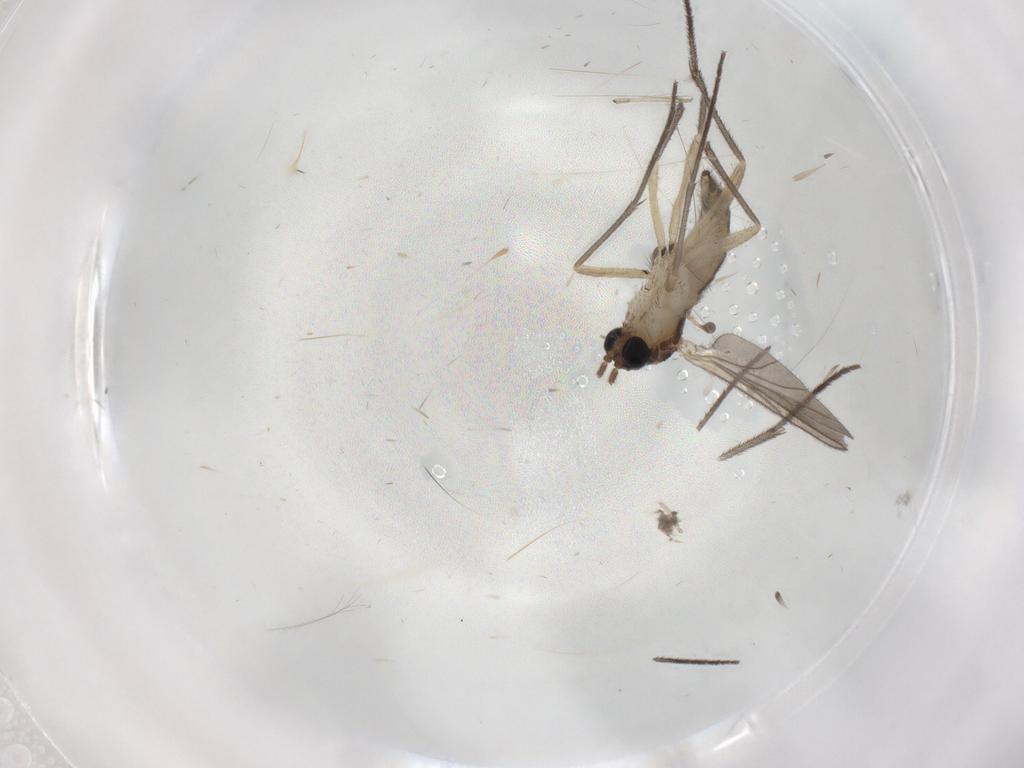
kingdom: Animalia
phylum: Arthropoda
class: Insecta
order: Diptera
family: Sciaridae
